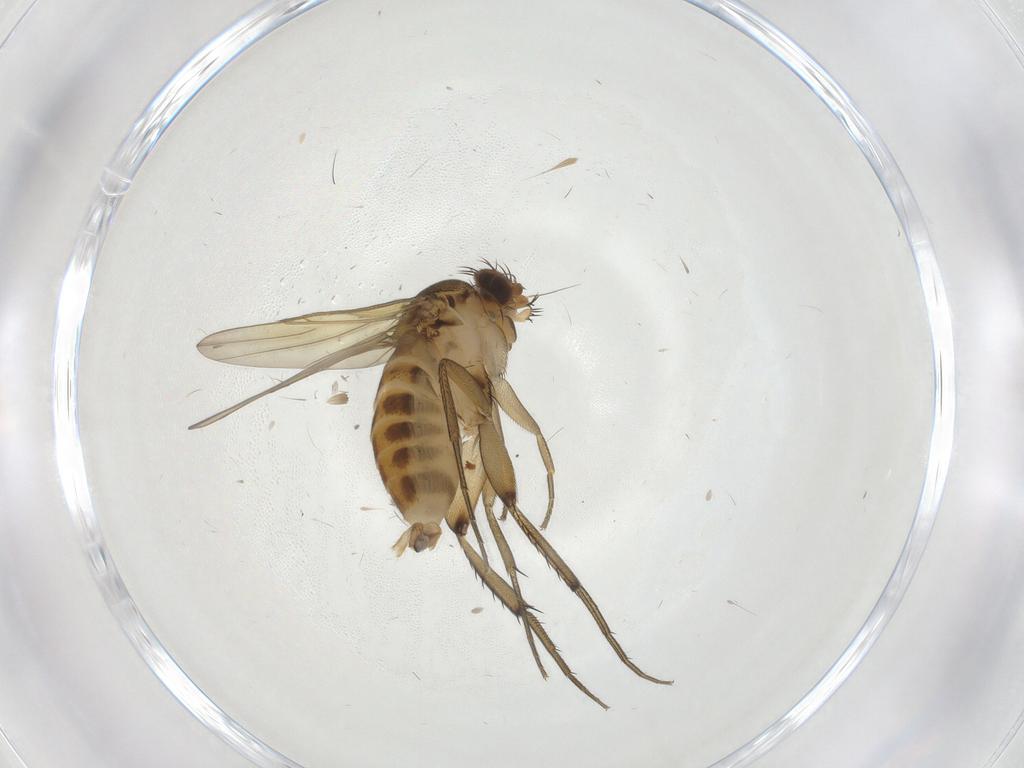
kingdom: Animalia
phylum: Arthropoda
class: Insecta
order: Diptera
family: Phoridae
